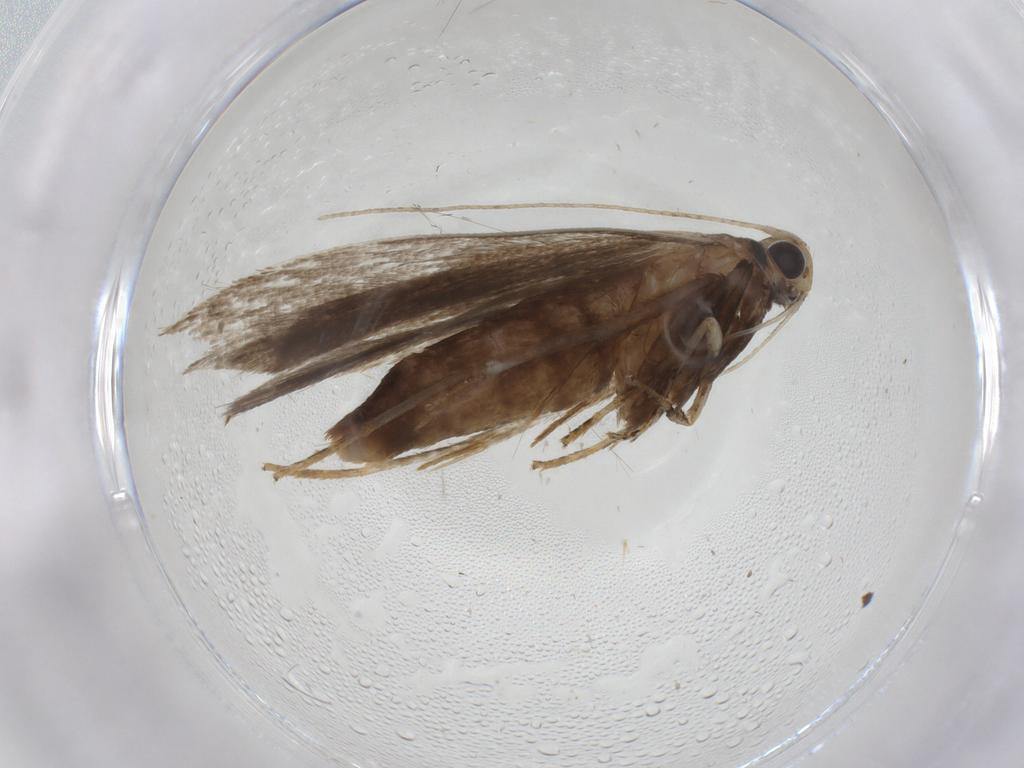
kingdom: Animalia
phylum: Arthropoda
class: Insecta
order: Lepidoptera
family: Gelechiidae
